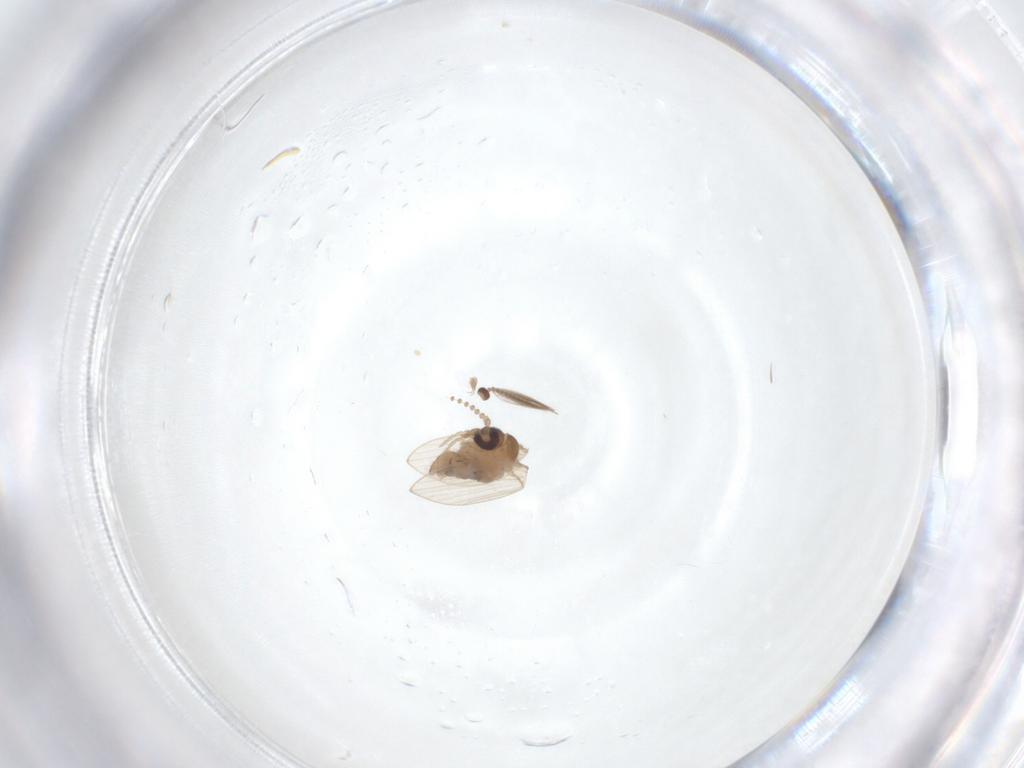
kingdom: Animalia
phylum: Arthropoda
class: Insecta
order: Diptera
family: Psychodidae
